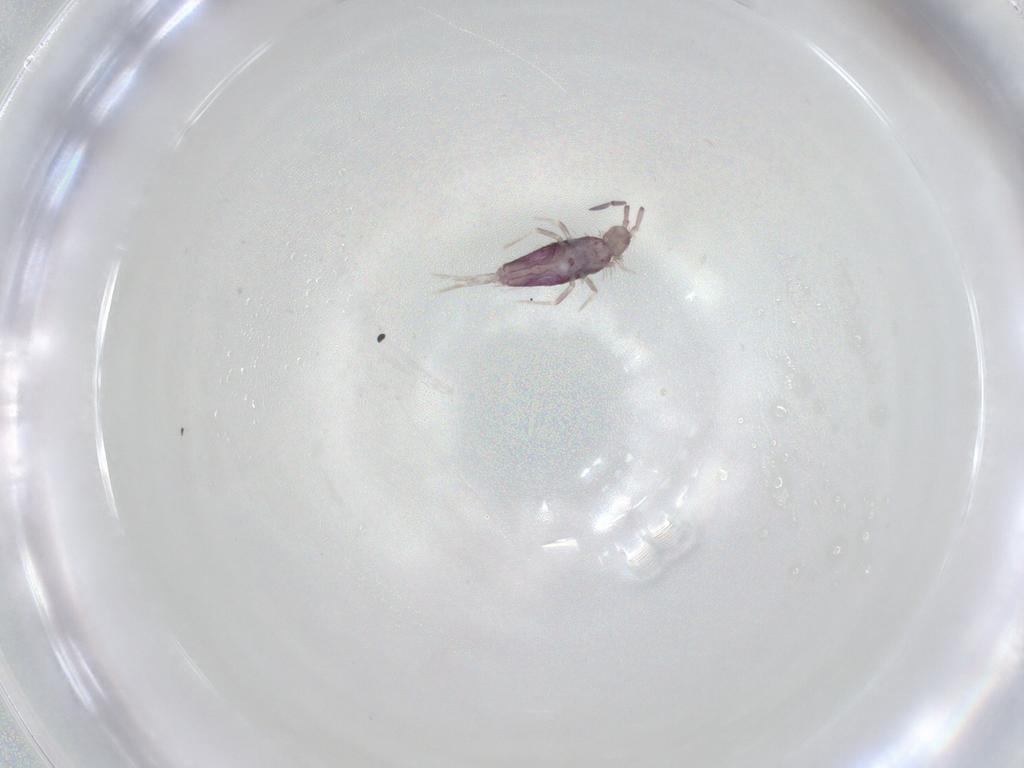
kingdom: Animalia
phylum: Arthropoda
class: Collembola
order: Entomobryomorpha
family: Entomobryidae
